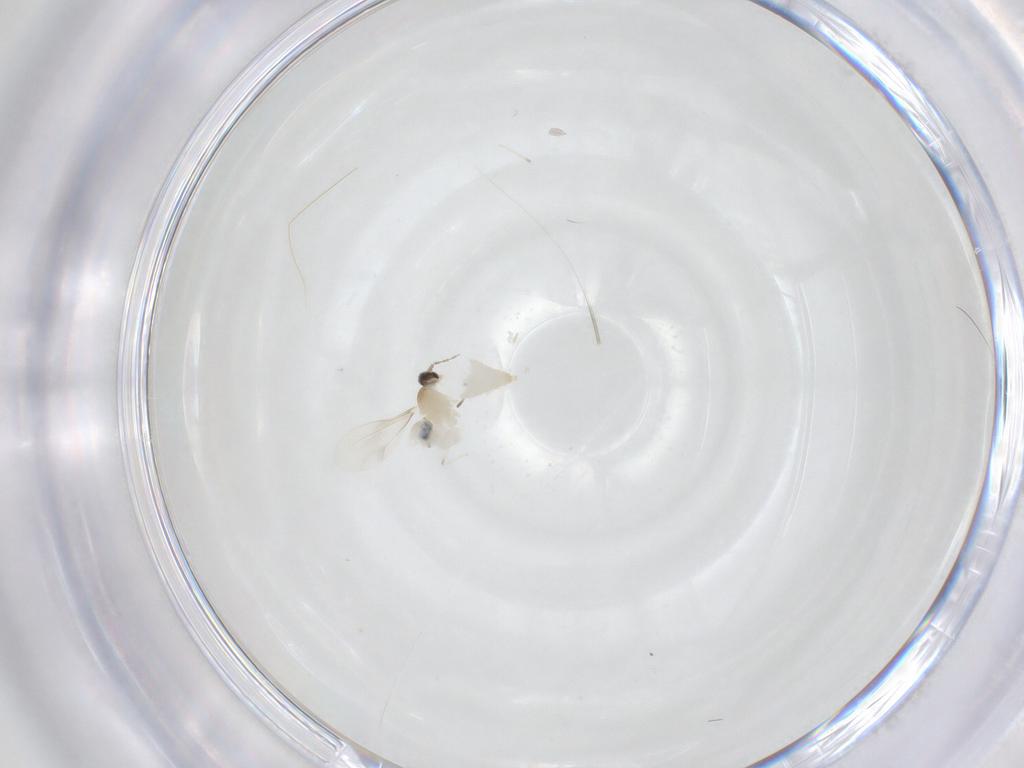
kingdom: Animalia
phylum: Arthropoda
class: Insecta
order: Diptera
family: Cecidomyiidae
